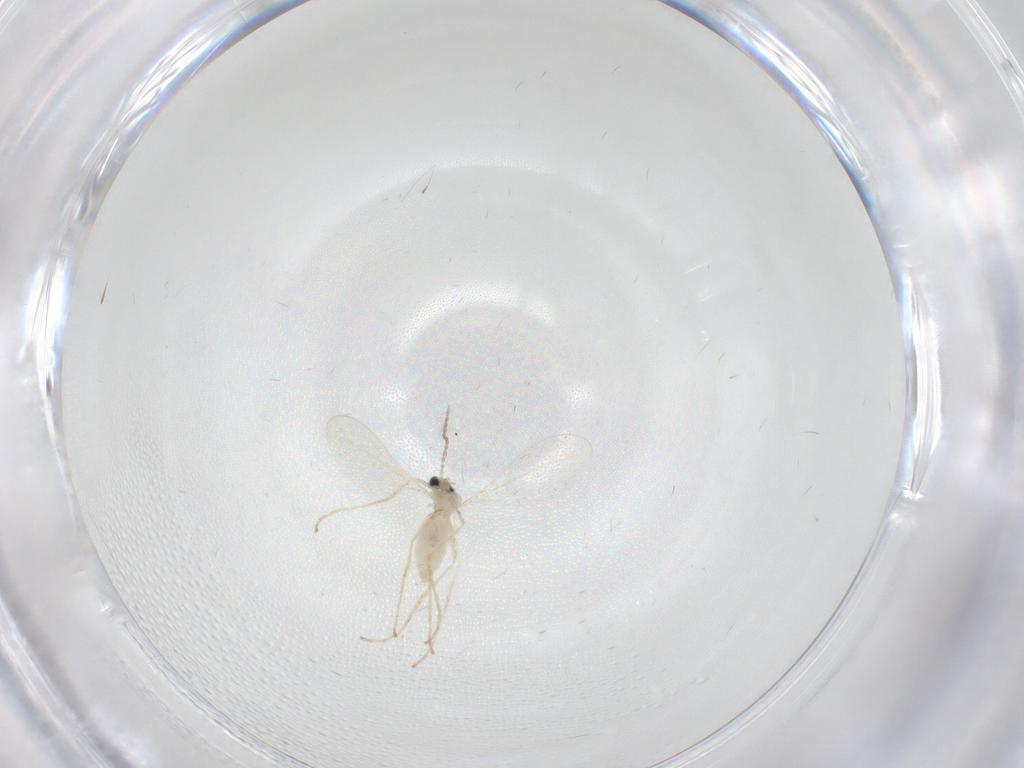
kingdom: Animalia
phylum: Arthropoda
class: Insecta
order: Diptera
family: Cecidomyiidae
